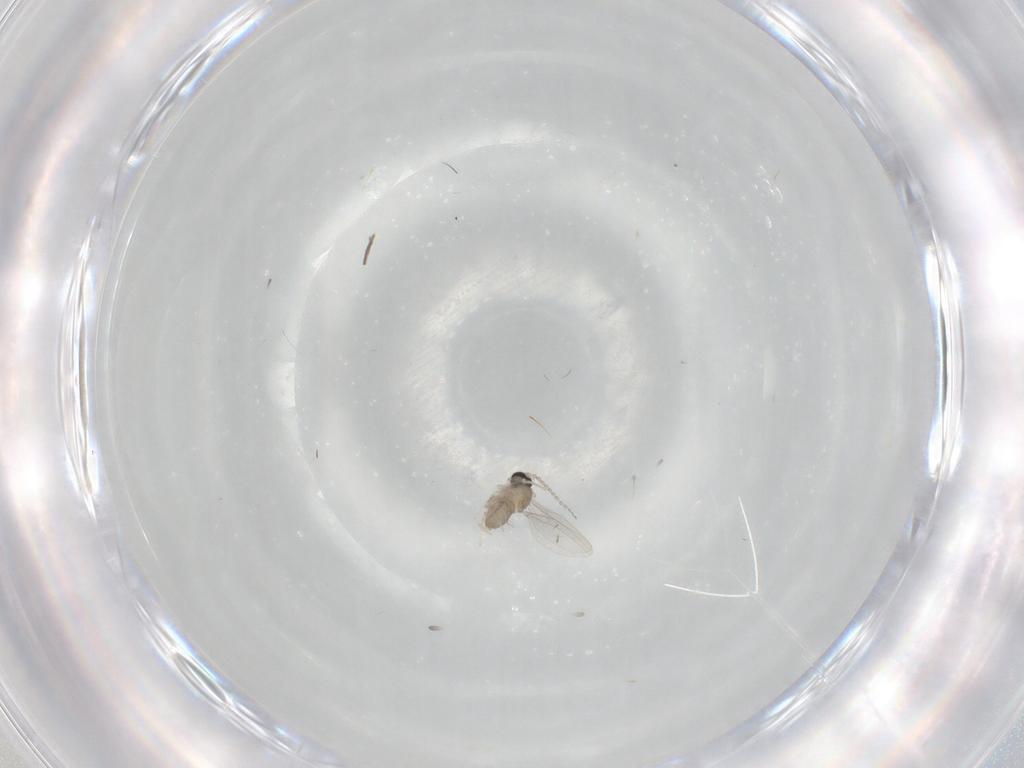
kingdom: Animalia
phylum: Arthropoda
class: Insecta
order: Diptera
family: Cecidomyiidae
